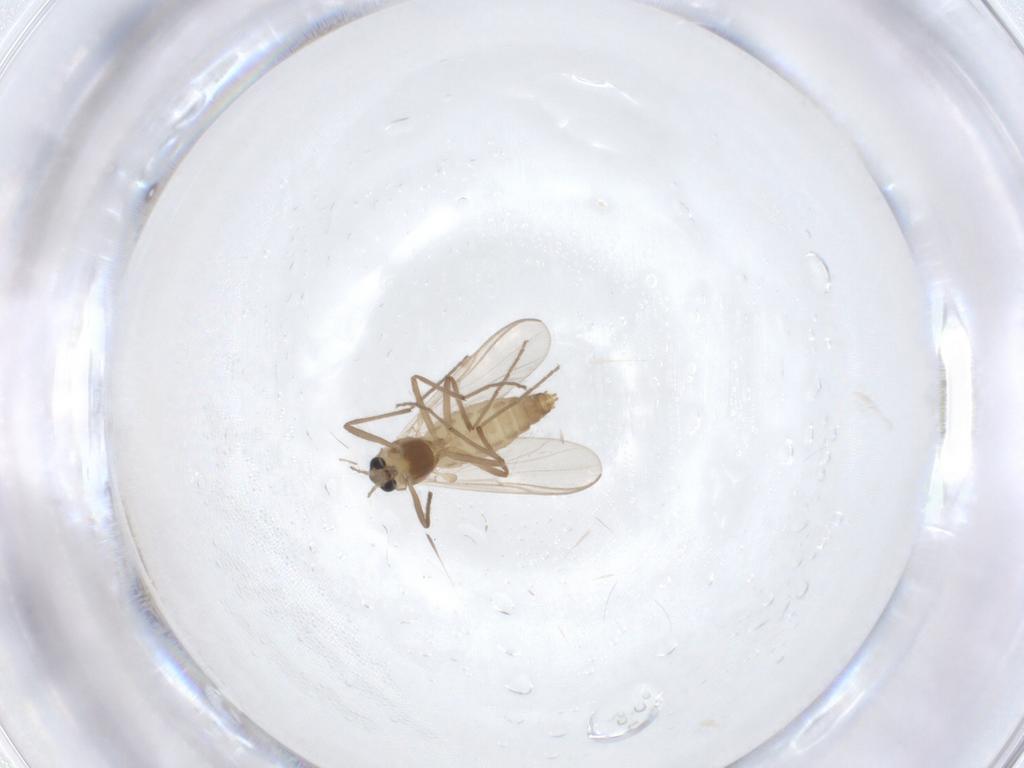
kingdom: Animalia
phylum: Arthropoda
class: Insecta
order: Diptera
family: Chironomidae
